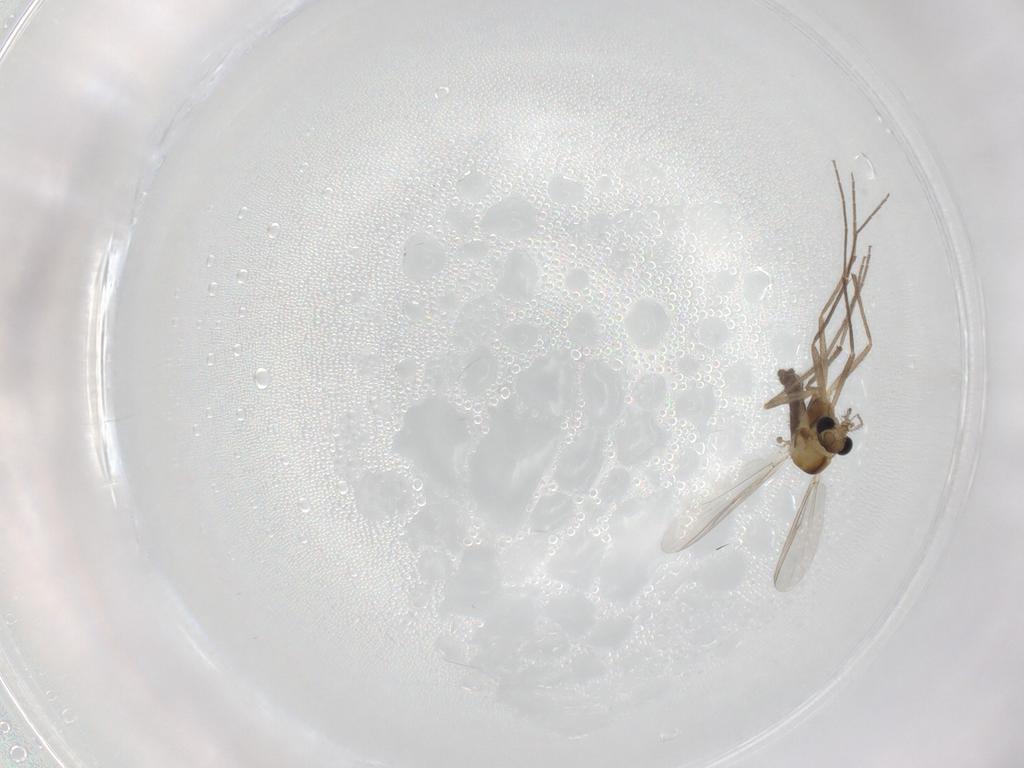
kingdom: Animalia
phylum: Arthropoda
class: Insecta
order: Diptera
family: Chironomidae
